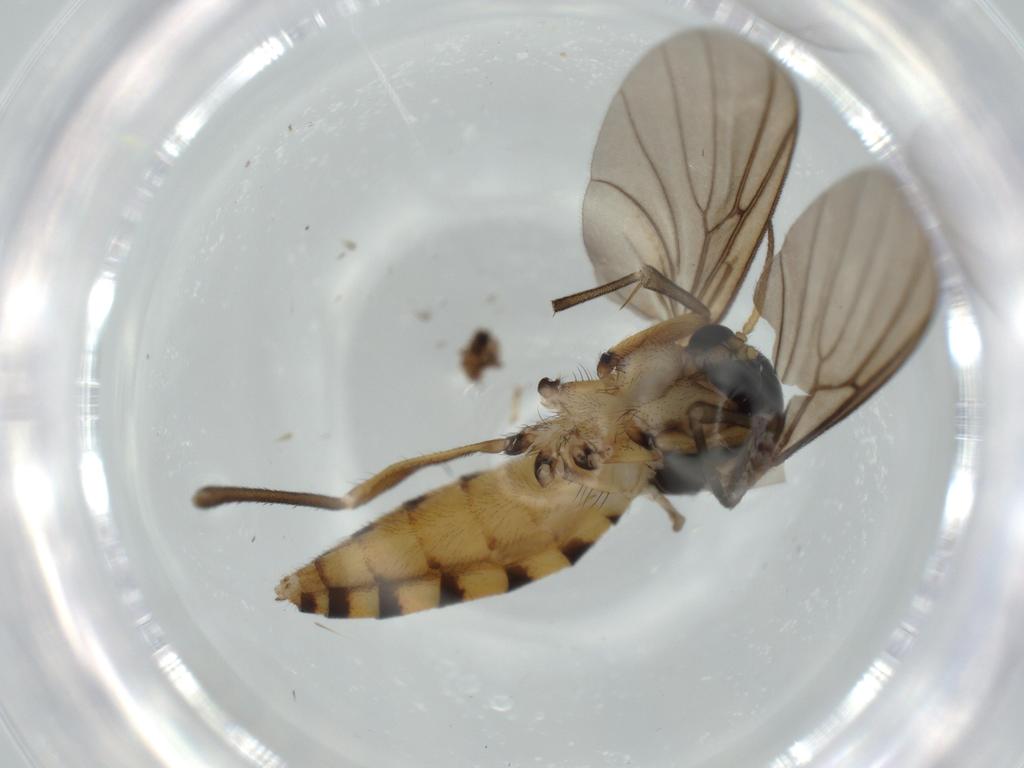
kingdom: Animalia
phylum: Arthropoda
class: Insecta
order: Diptera
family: Mycetophilidae
